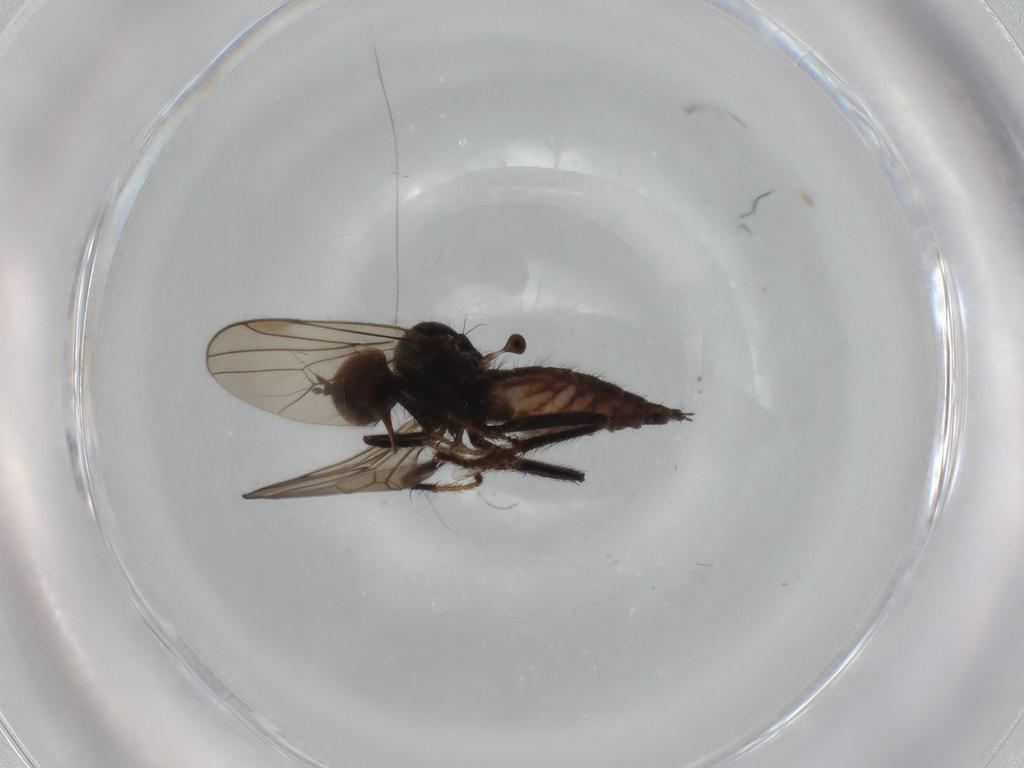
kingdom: Animalia
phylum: Arthropoda
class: Insecta
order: Diptera
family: Hybotidae
